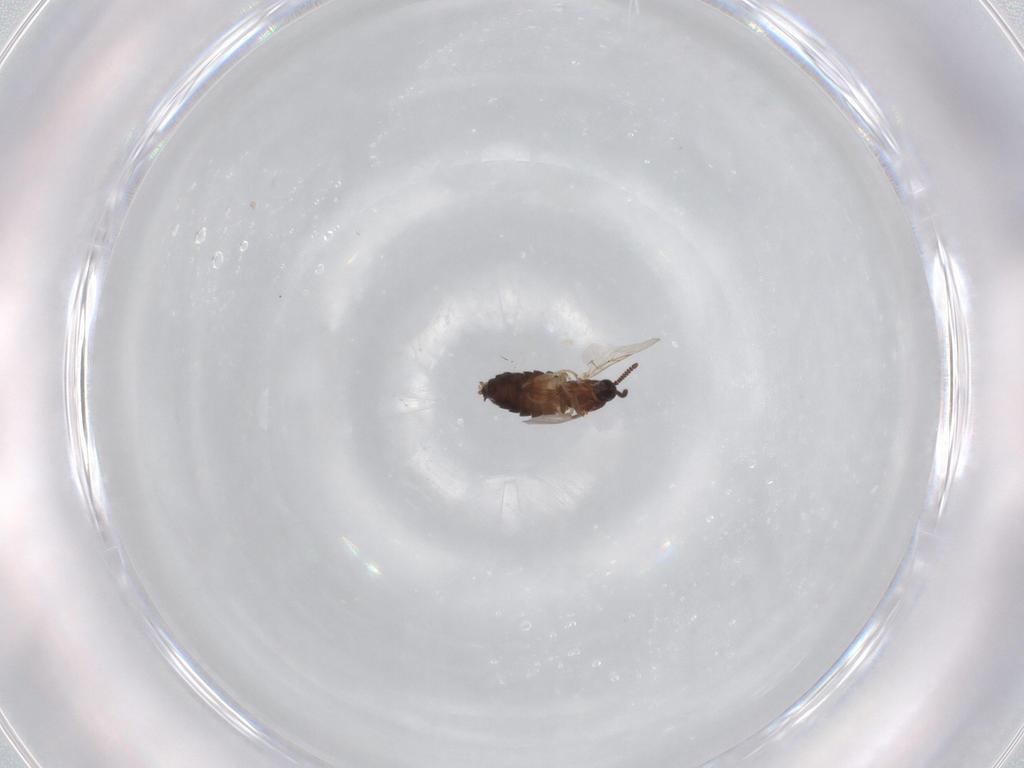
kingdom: Animalia
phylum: Arthropoda
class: Insecta
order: Diptera
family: Scatopsidae
